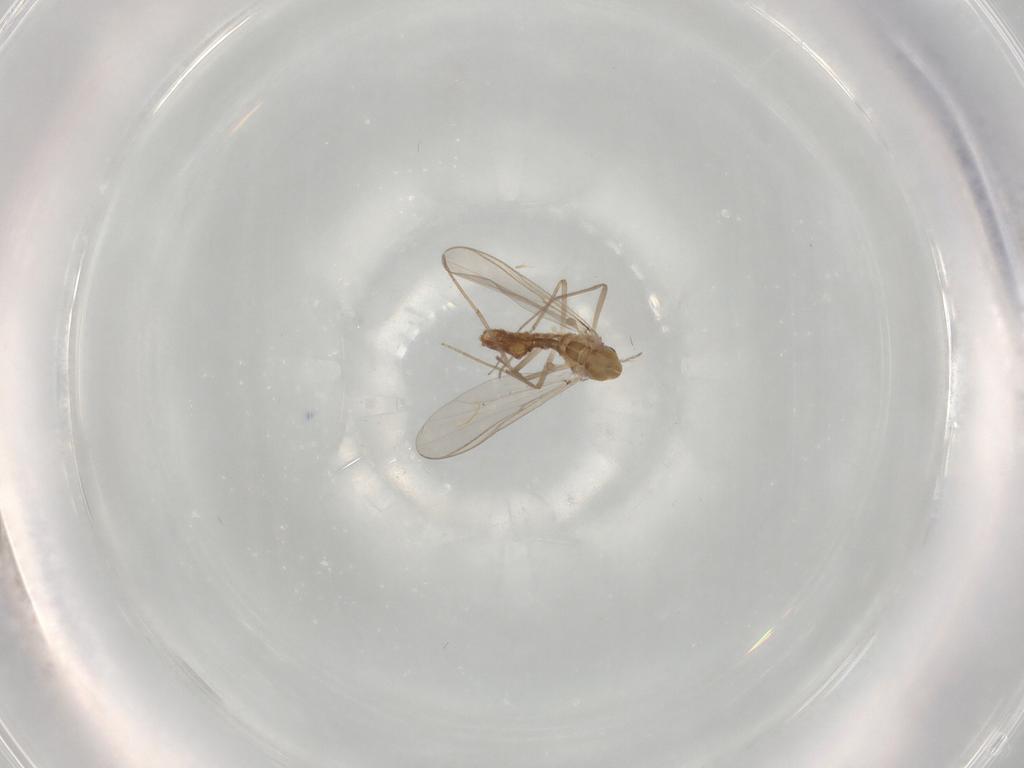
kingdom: Animalia
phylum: Arthropoda
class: Insecta
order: Diptera
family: Chironomidae
